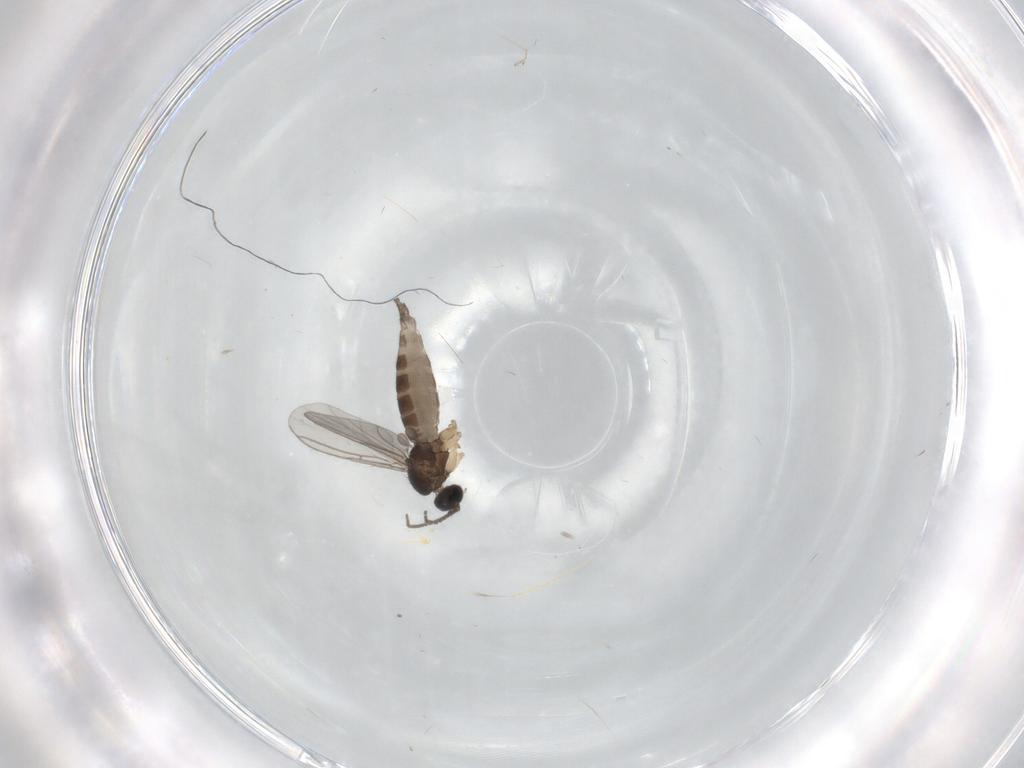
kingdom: Animalia
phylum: Arthropoda
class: Insecta
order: Diptera
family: Sciaridae
